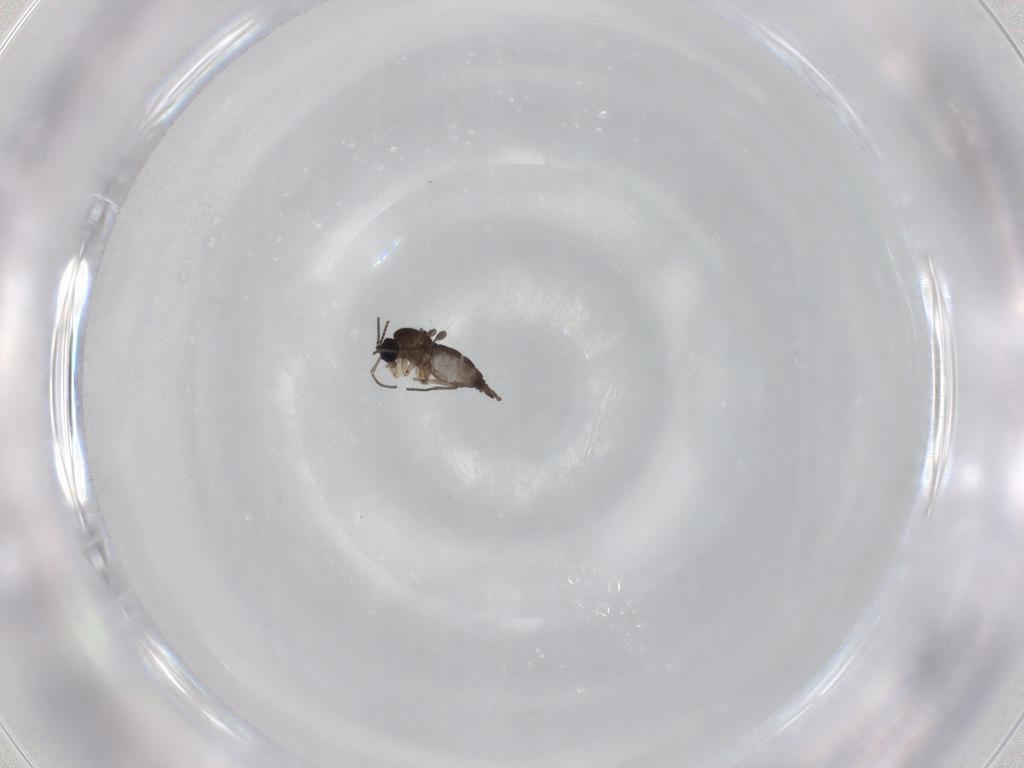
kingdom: Animalia
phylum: Arthropoda
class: Insecta
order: Diptera
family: Sciaridae
